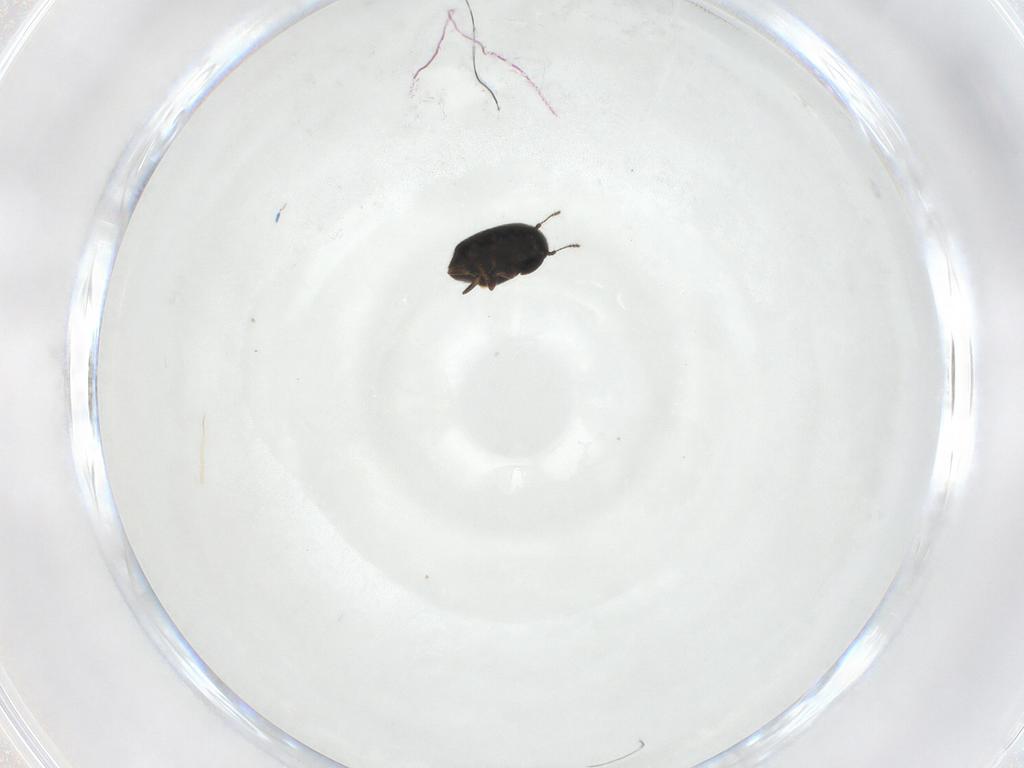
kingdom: Animalia
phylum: Arthropoda
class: Insecta
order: Coleoptera
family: Ptiliidae
